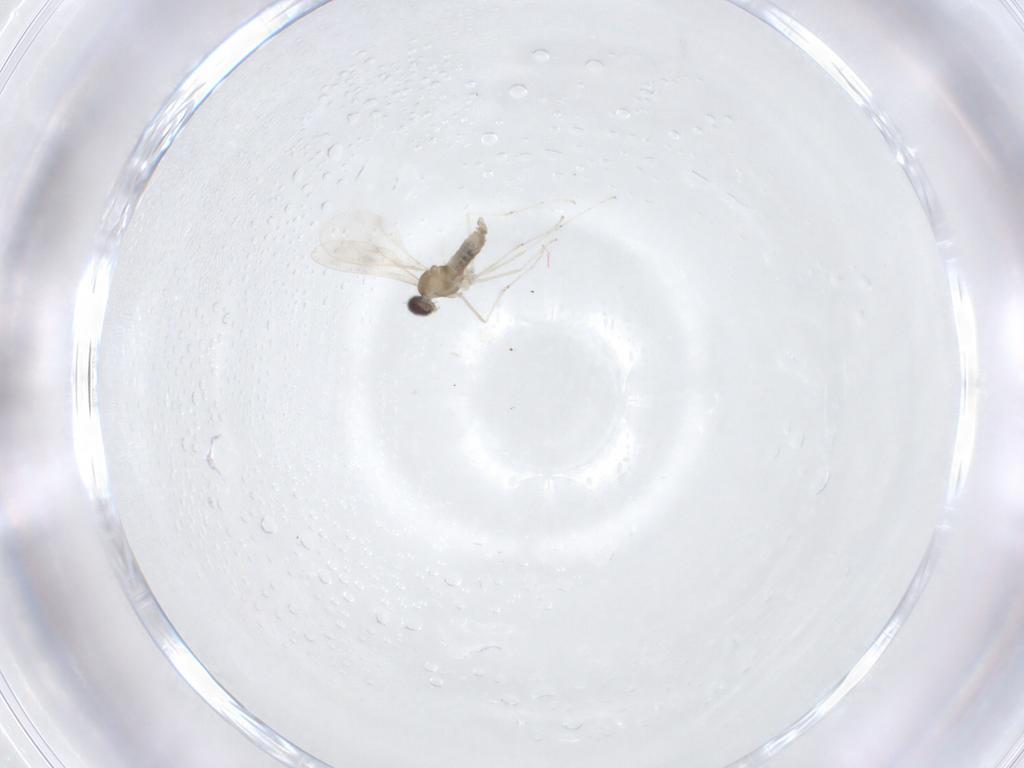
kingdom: Animalia
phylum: Arthropoda
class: Insecta
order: Diptera
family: Cecidomyiidae
